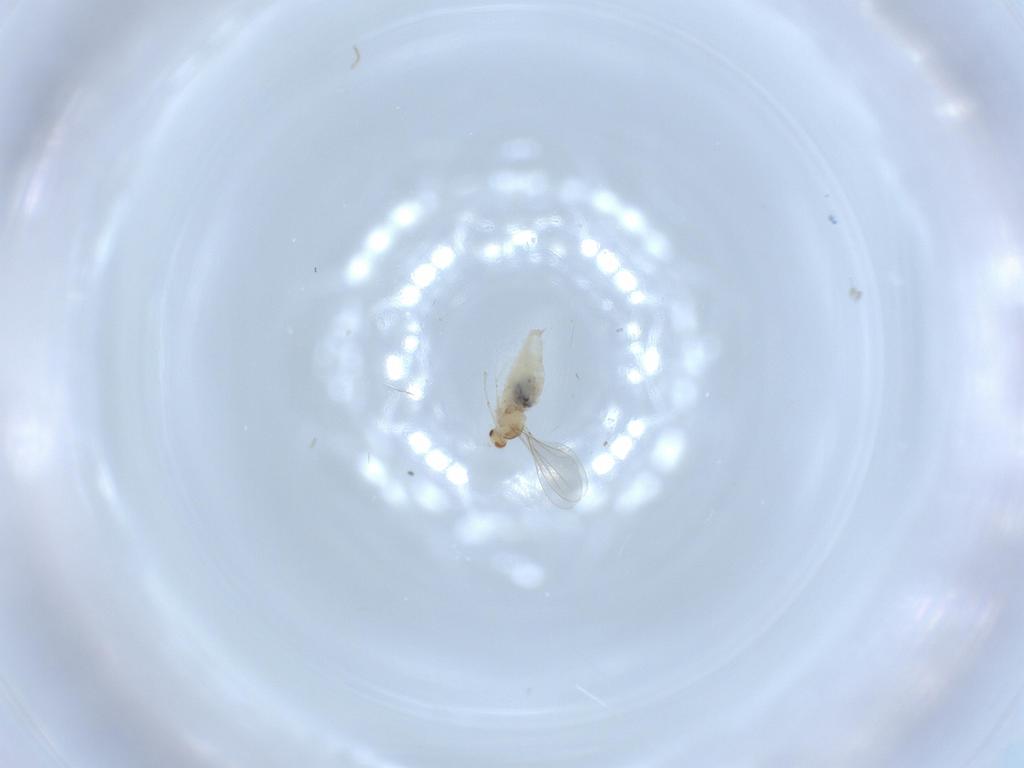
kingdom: Animalia
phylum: Arthropoda
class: Insecta
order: Diptera
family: Cecidomyiidae
